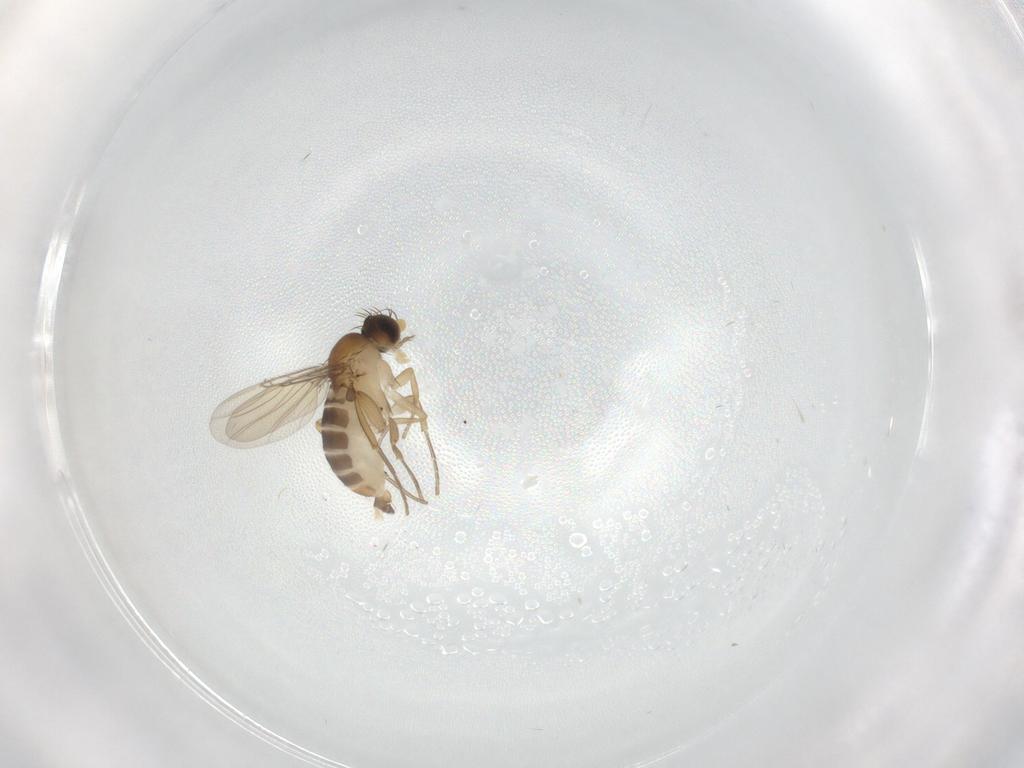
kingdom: Animalia
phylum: Arthropoda
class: Insecta
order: Diptera
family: Phoridae
